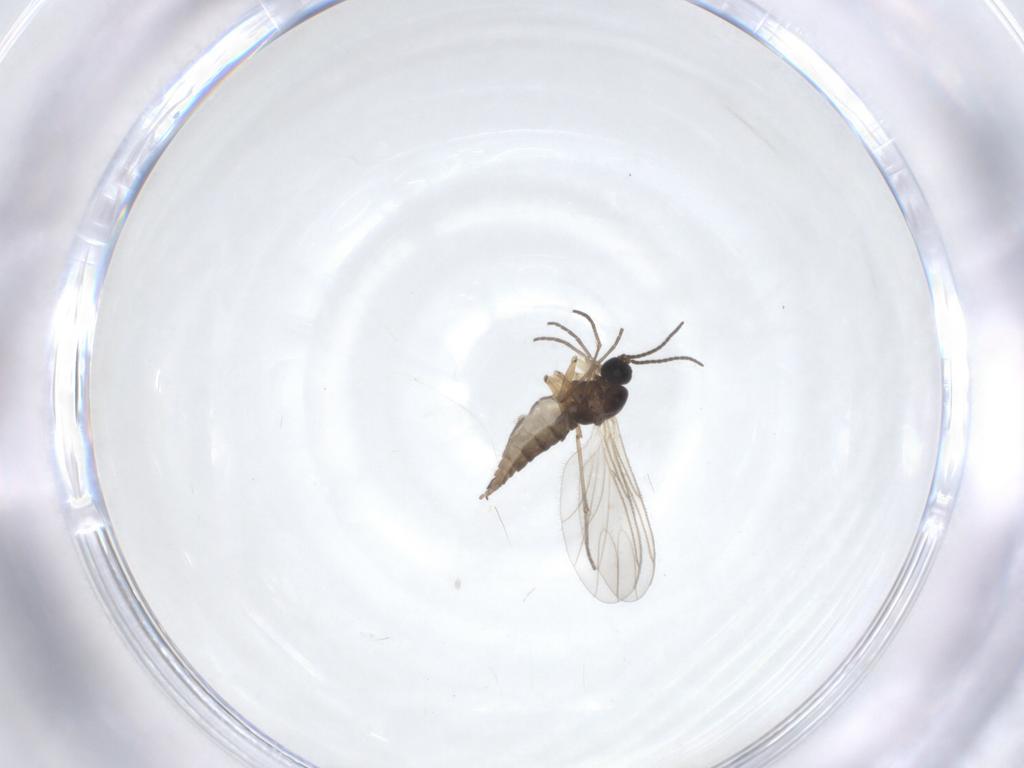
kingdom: Animalia
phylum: Arthropoda
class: Insecta
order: Diptera
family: Sciaridae
